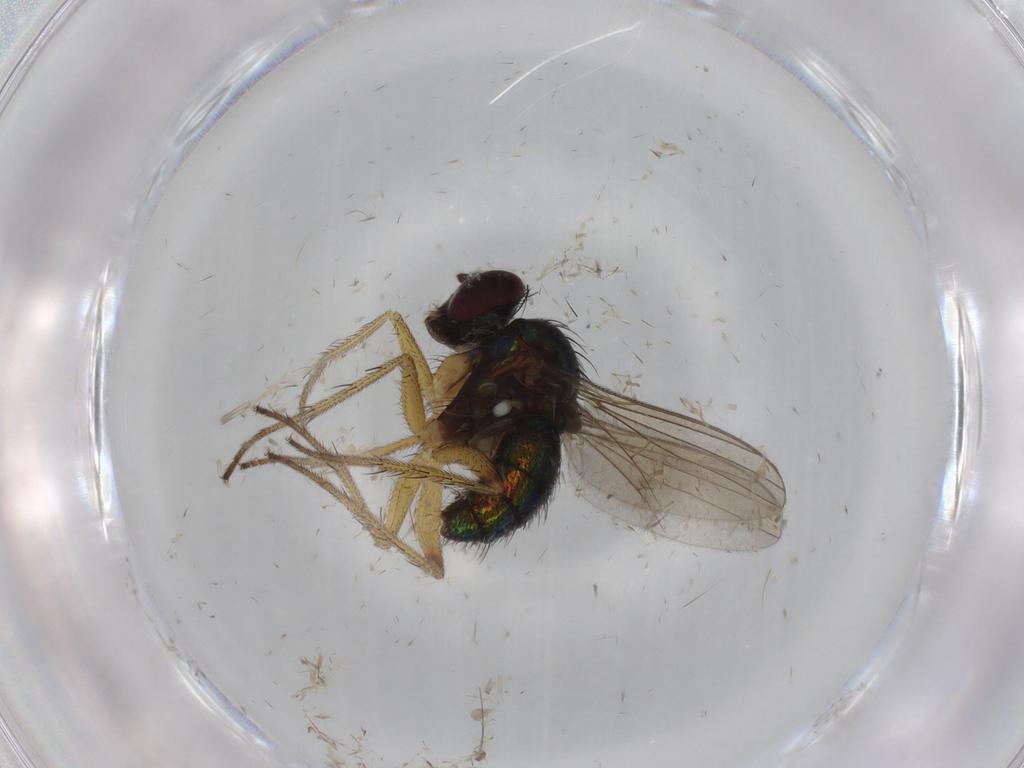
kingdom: Animalia
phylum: Arthropoda
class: Insecta
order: Diptera
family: Dolichopodidae
